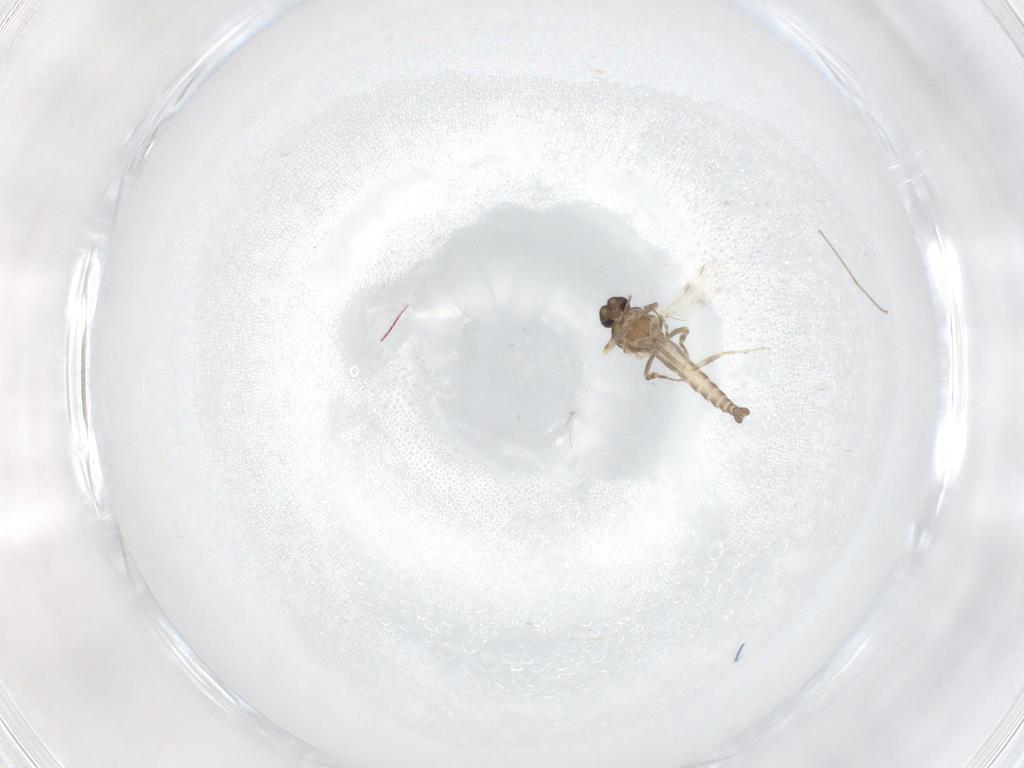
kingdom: Animalia
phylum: Arthropoda
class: Insecta
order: Diptera
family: Ceratopogonidae
